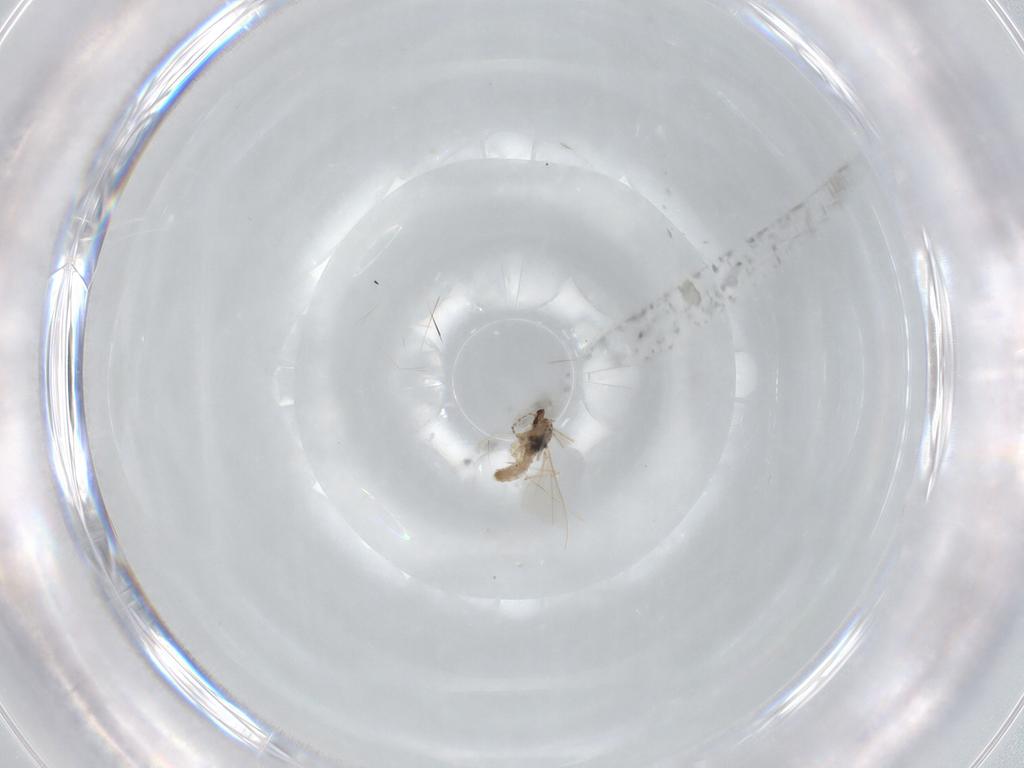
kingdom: Animalia
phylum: Arthropoda
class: Insecta
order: Diptera
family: Cecidomyiidae
